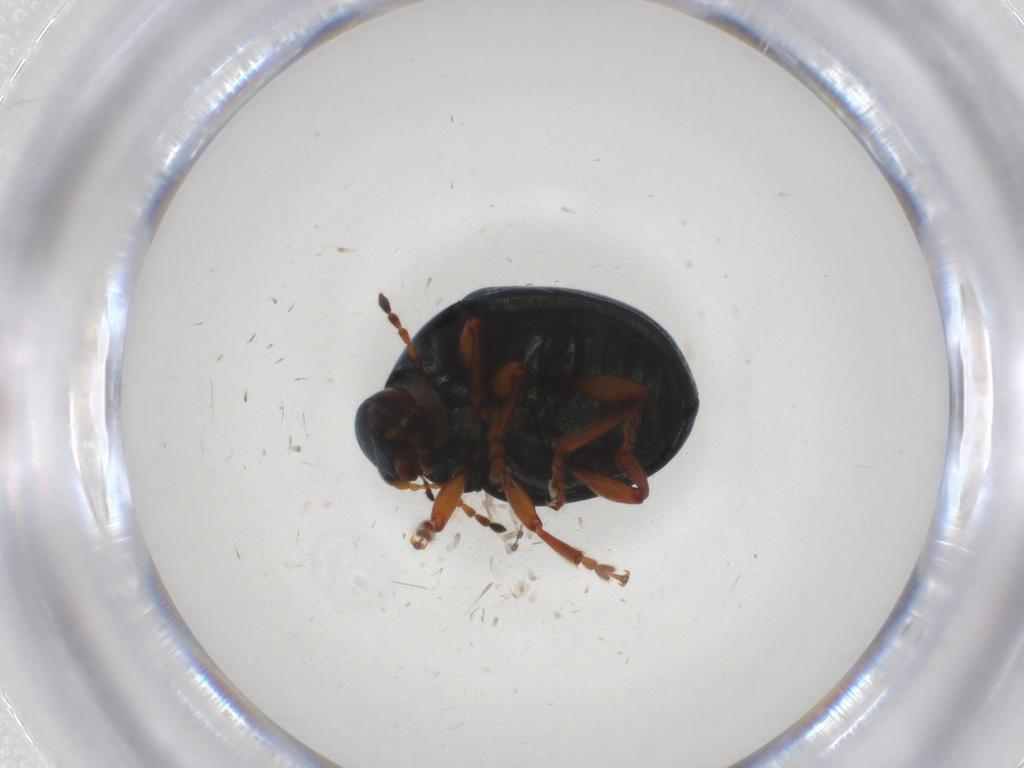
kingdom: Animalia
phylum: Arthropoda
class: Insecta
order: Coleoptera
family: Chrysomelidae
